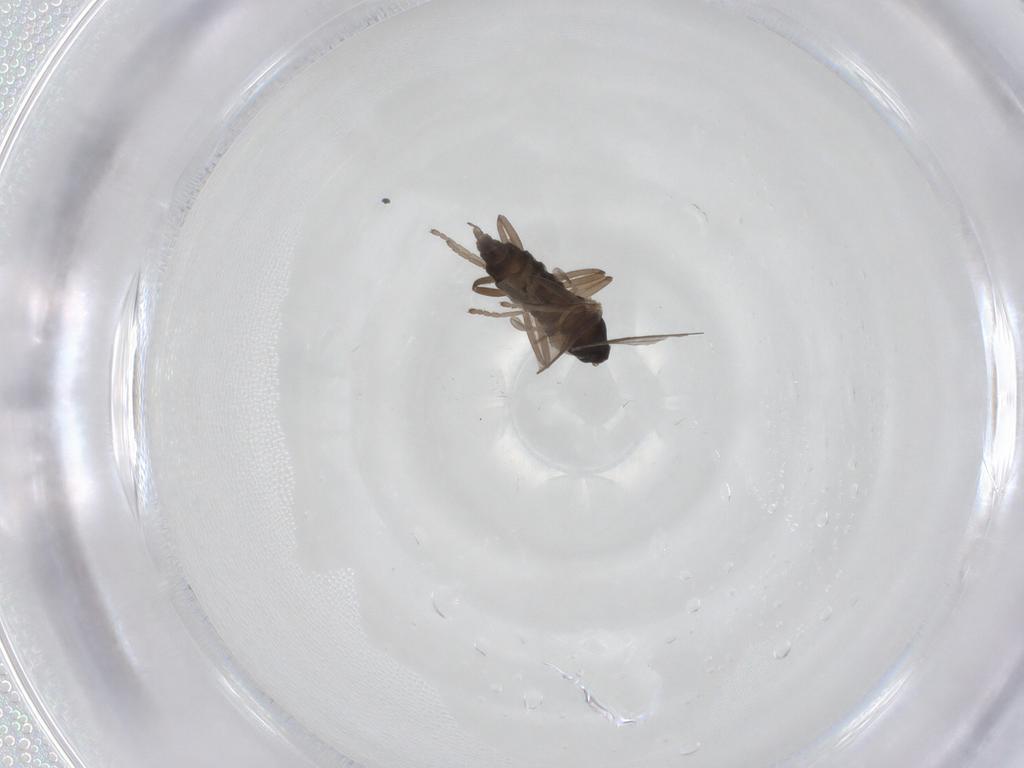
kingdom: Animalia
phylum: Arthropoda
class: Insecta
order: Diptera
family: Cecidomyiidae
